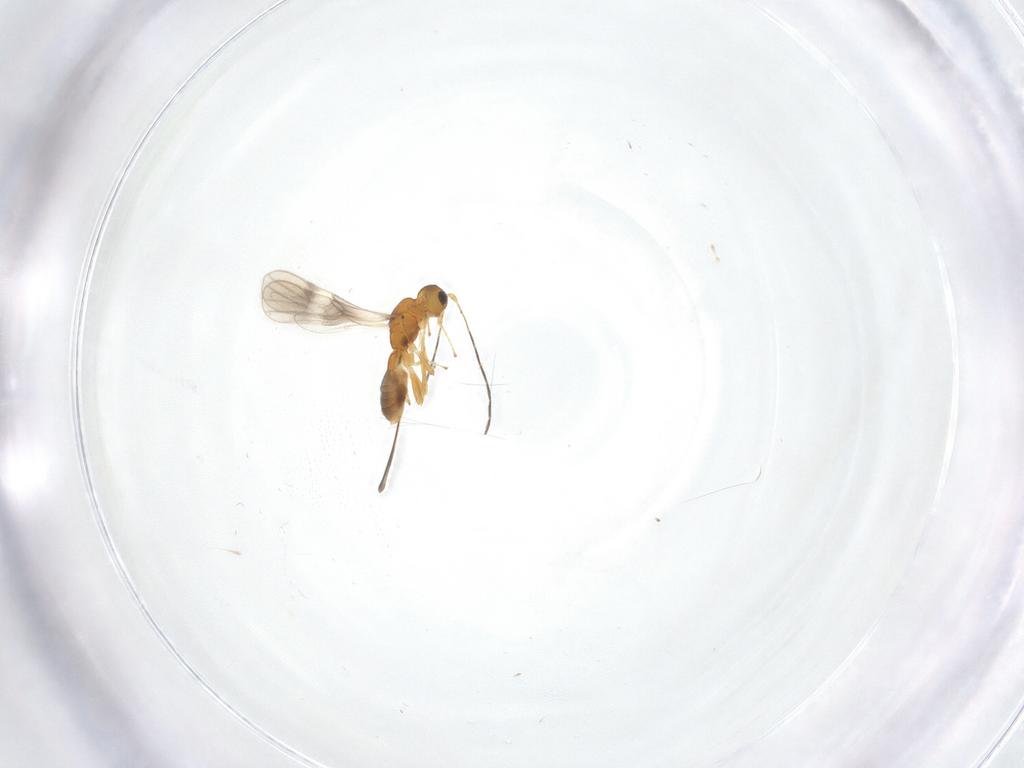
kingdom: Animalia
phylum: Arthropoda
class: Insecta
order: Hymenoptera
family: Braconidae
